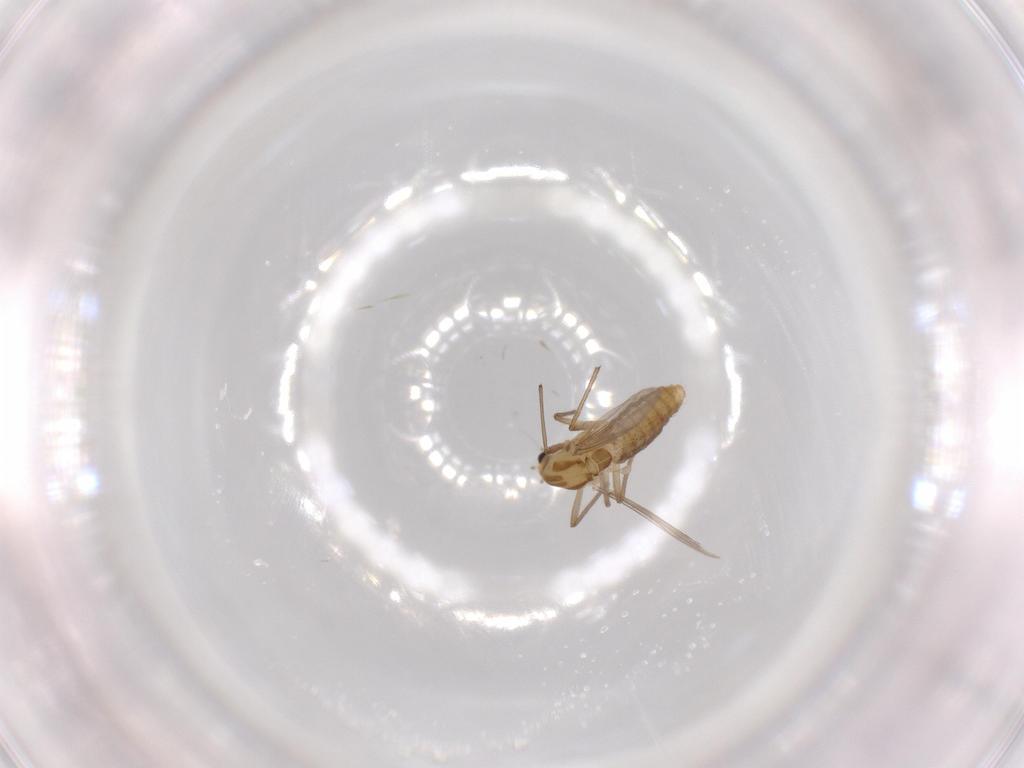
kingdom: Animalia
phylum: Arthropoda
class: Insecta
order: Diptera
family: Chironomidae
